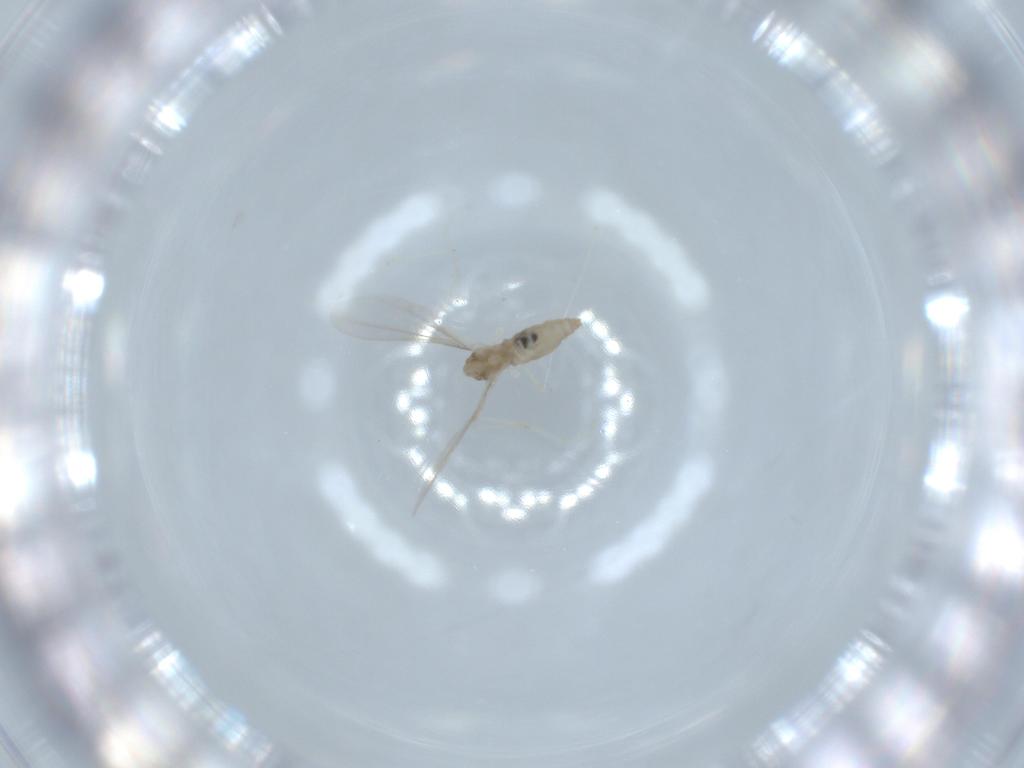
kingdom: Animalia
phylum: Arthropoda
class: Insecta
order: Diptera
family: Cecidomyiidae
